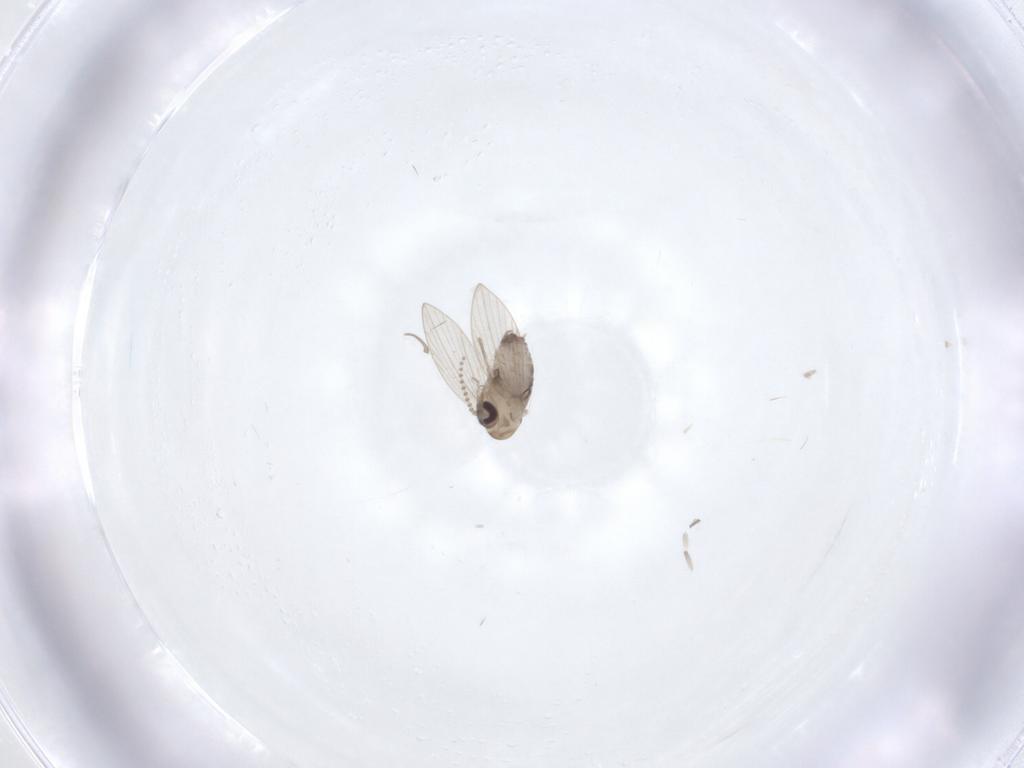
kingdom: Animalia
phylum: Arthropoda
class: Insecta
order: Diptera
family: Psychodidae
